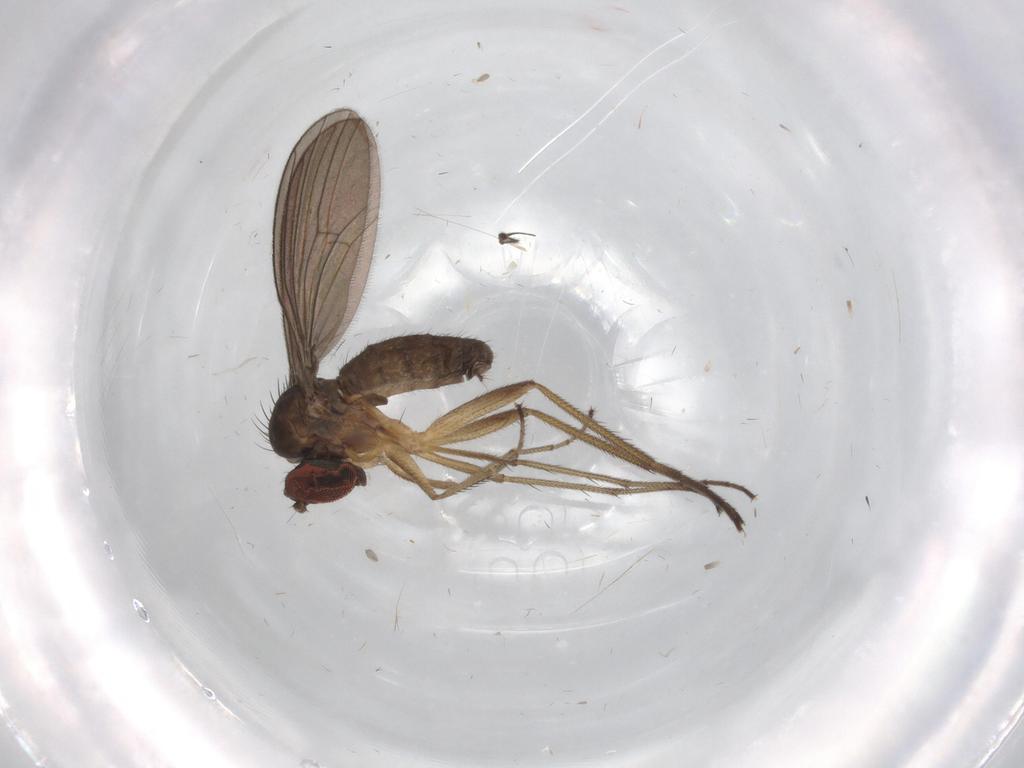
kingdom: Animalia
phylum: Arthropoda
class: Insecta
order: Diptera
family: Dolichopodidae
